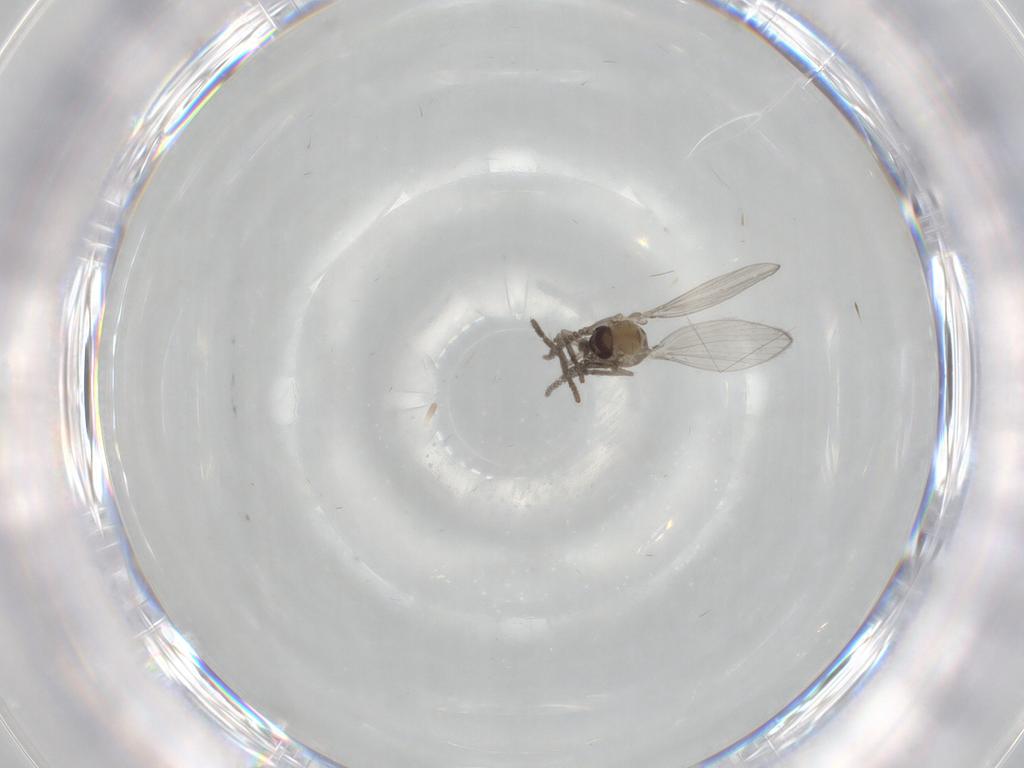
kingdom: Animalia
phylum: Arthropoda
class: Insecta
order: Diptera
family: Psychodidae
